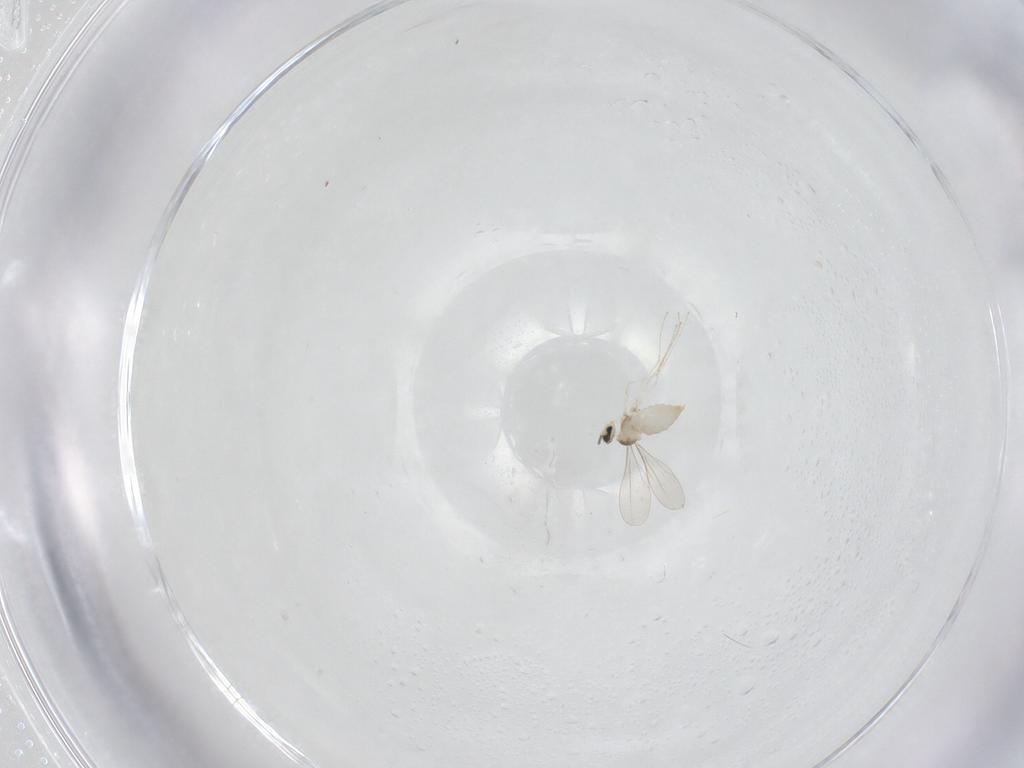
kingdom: Animalia
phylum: Arthropoda
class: Insecta
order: Diptera
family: Cecidomyiidae
